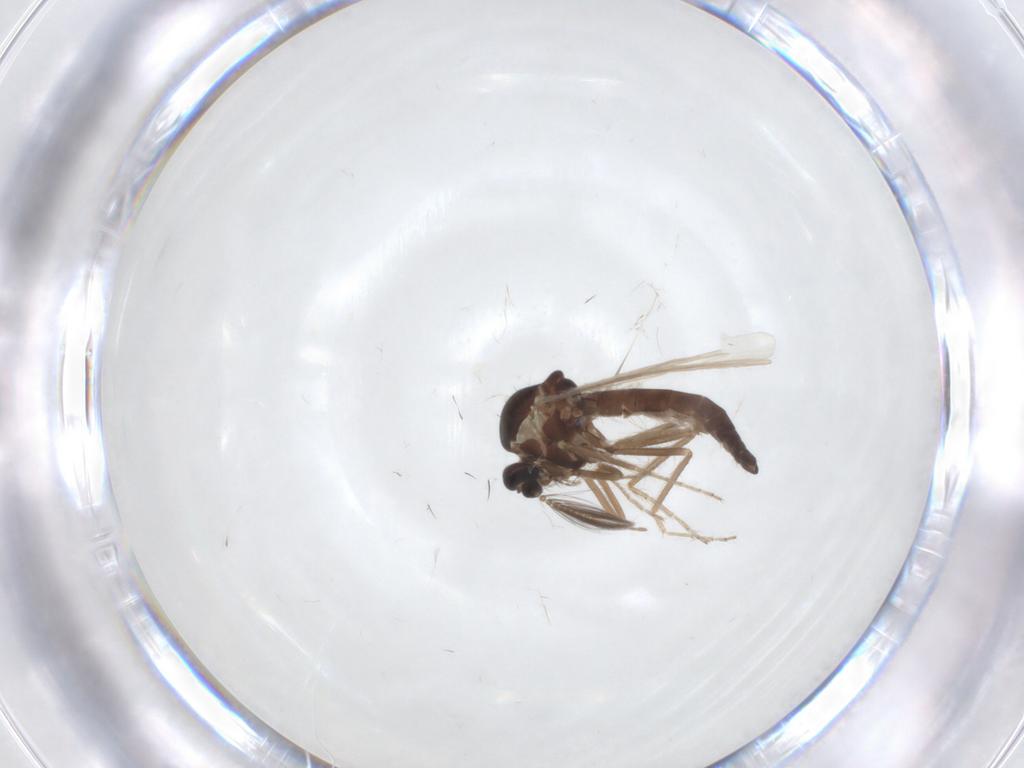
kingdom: Animalia
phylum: Arthropoda
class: Insecta
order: Diptera
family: Ceratopogonidae
